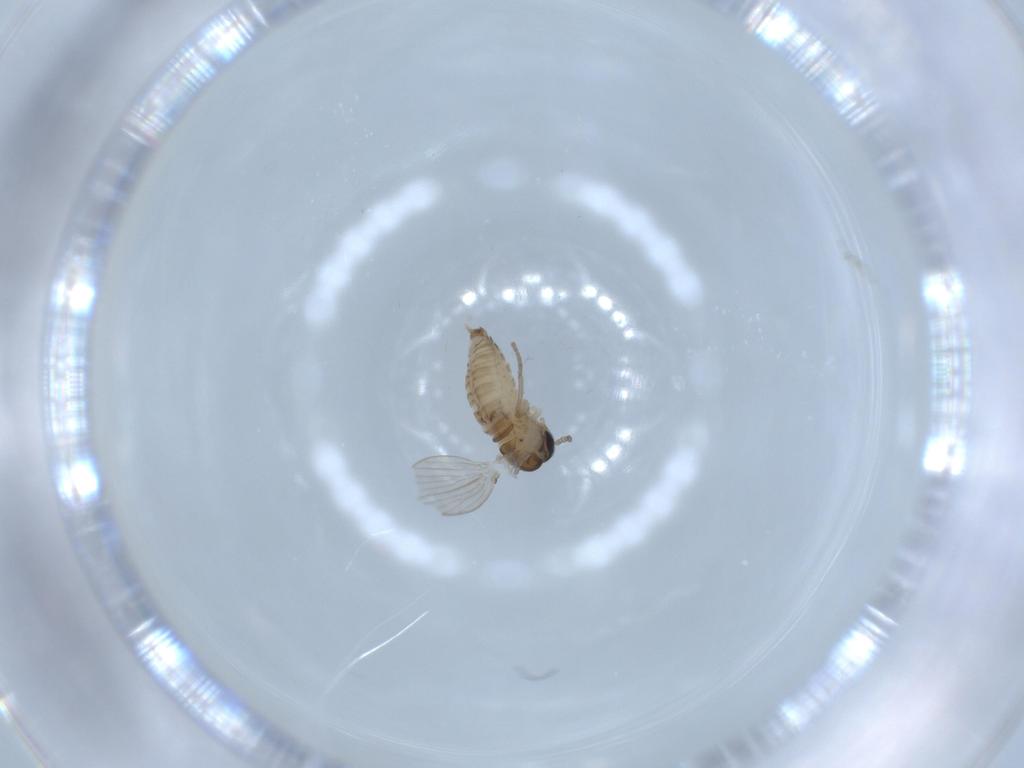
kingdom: Animalia
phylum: Arthropoda
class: Insecta
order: Diptera
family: Psychodidae
